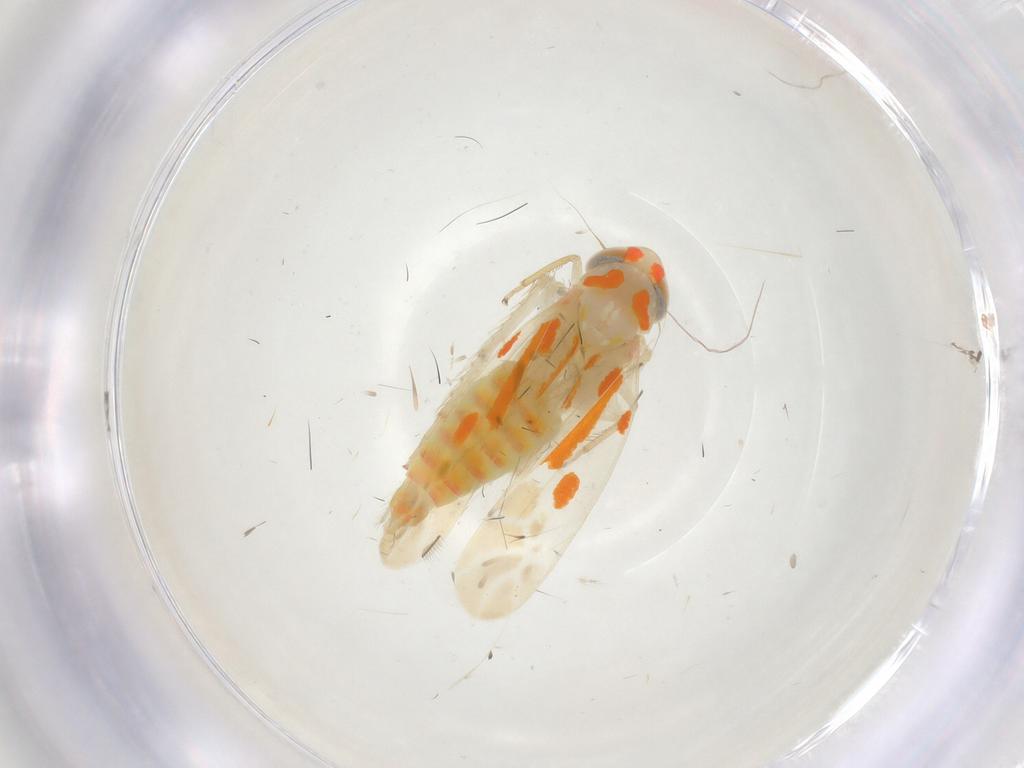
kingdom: Animalia
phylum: Arthropoda
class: Insecta
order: Hemiptera
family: Cicadellidae
